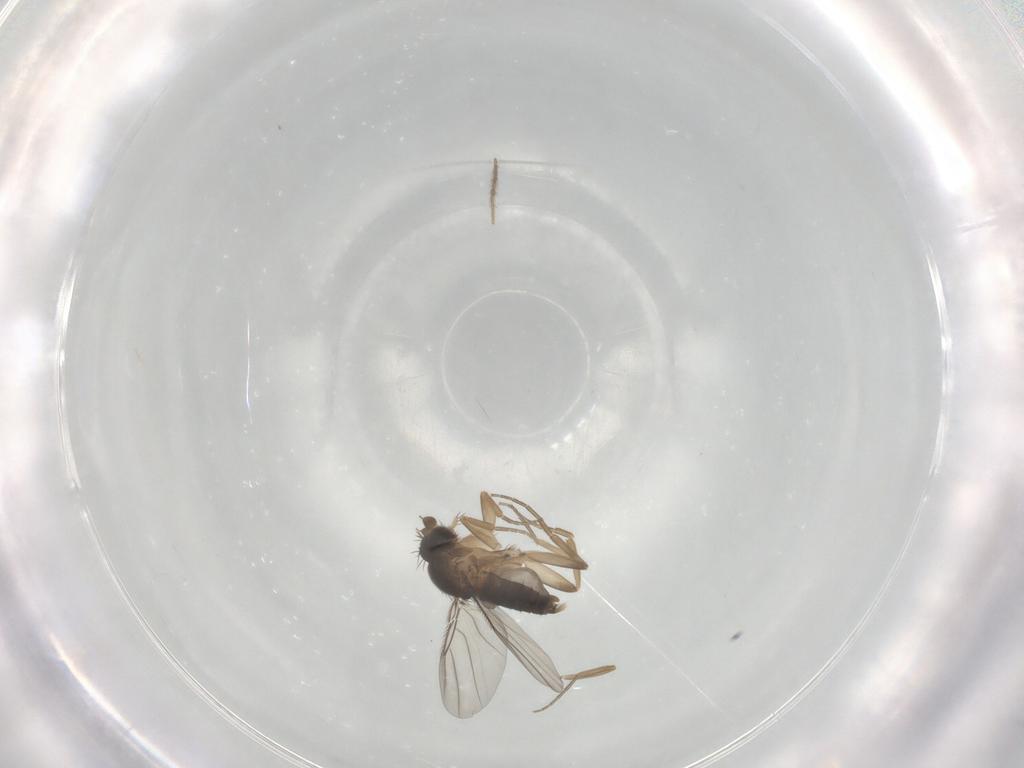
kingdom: Animalia
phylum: Arthropoda
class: Insecta
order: Diptera
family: Phoridae
